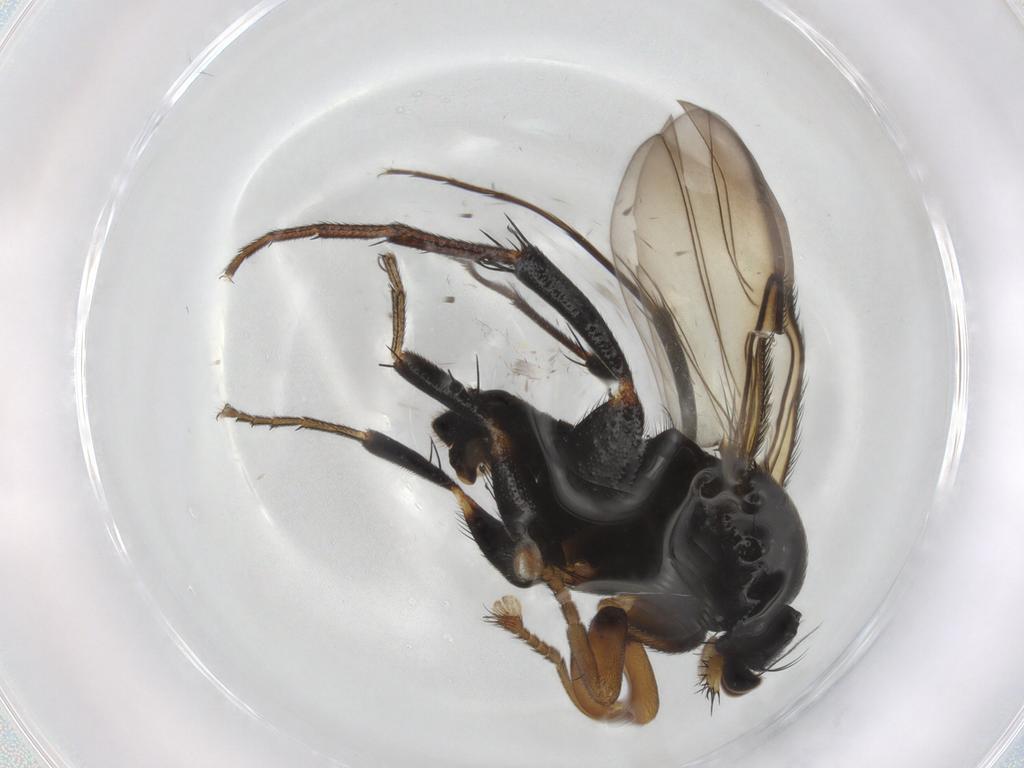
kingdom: Animalia
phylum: Arthropoda
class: Insecta
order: Diptera
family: Phoridae
